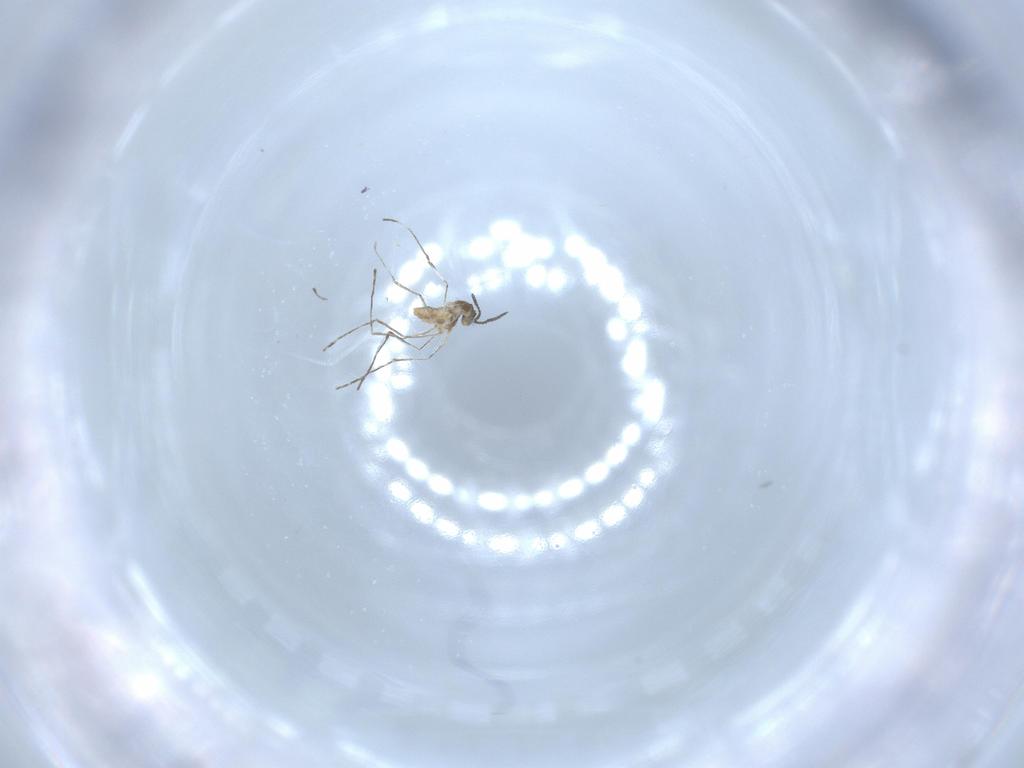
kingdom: Animalia
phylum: Arthropoda
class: Insecta
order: Diptera
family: Cecidomyiidae
